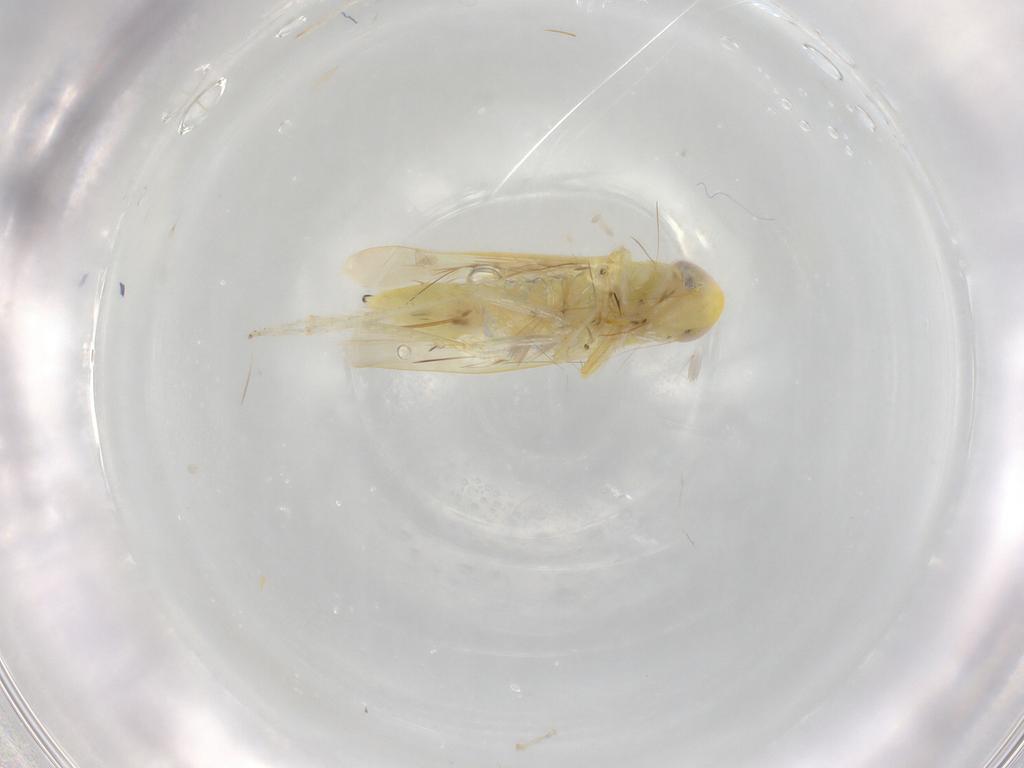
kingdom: Animalia
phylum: Arthropoda
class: Insecta
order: Hemiptera
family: Cicadellidae
